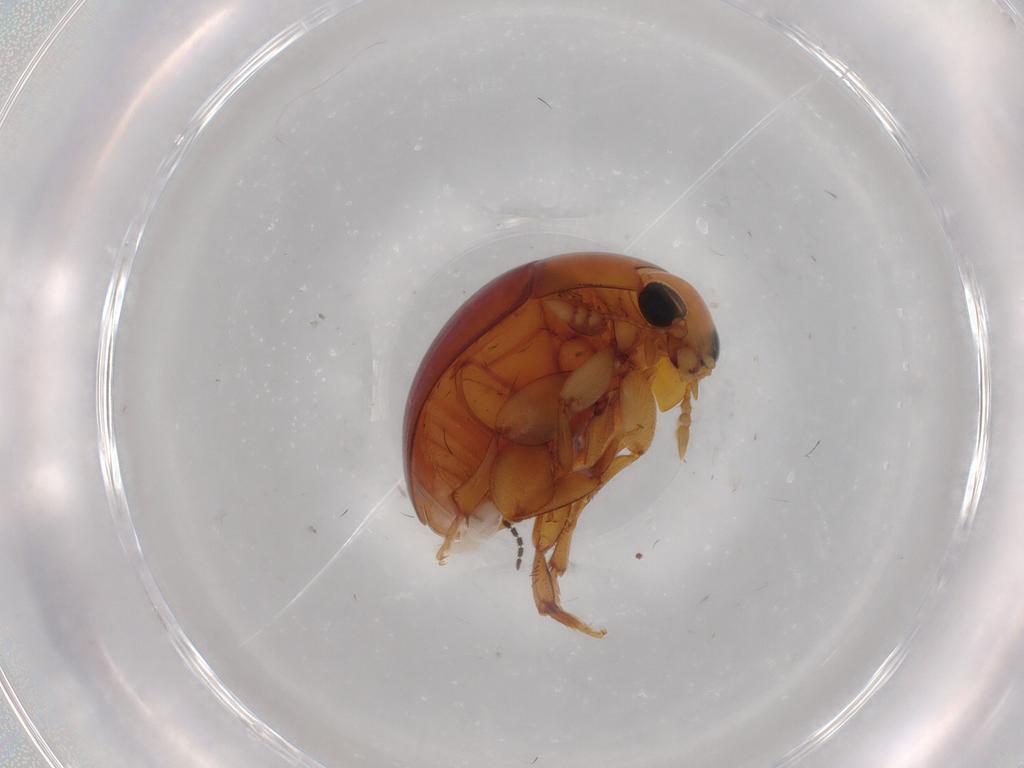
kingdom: Animalia
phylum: Arthropoda
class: Insecta
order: Coleoptera
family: Phalacridae
